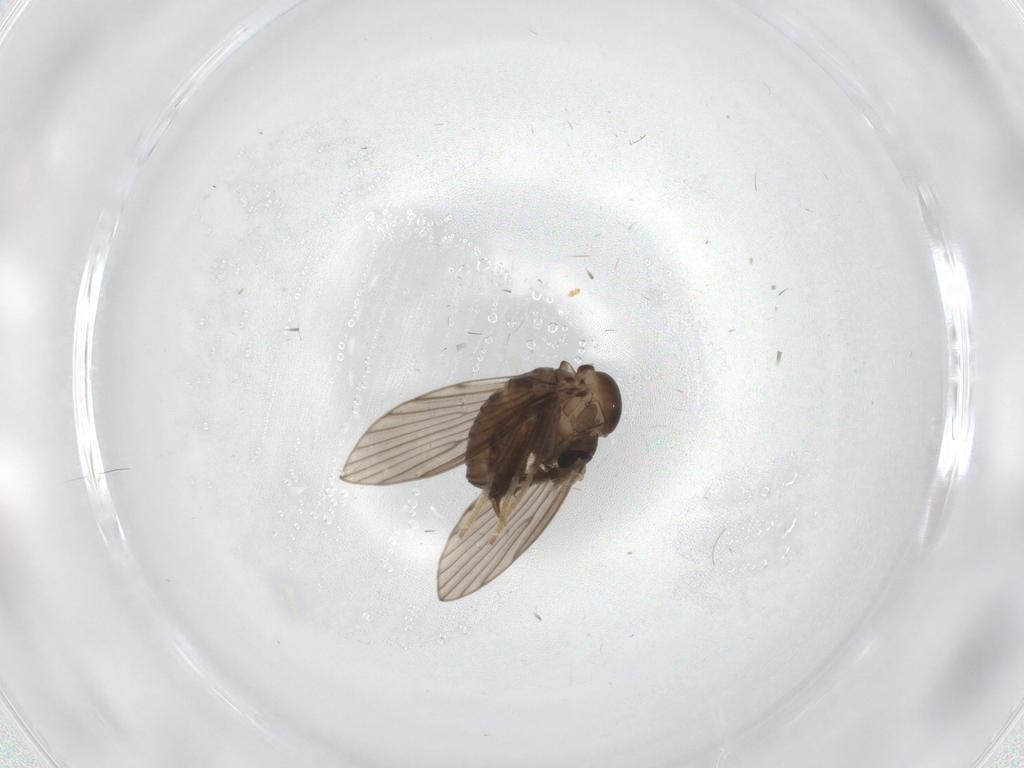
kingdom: Animalia
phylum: Arthropoda
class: Insecta
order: Diptera
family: Psychodidae
